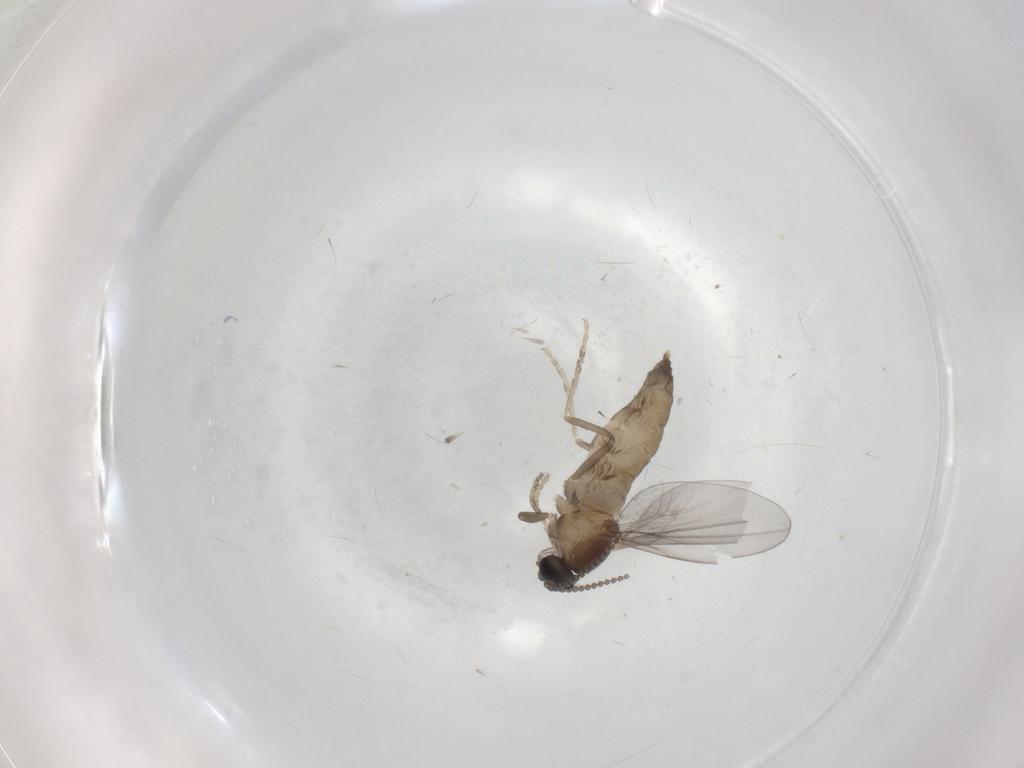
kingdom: Animalia
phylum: Arthropoda
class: Insecta
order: Diptera
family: Cecidomyiidae
